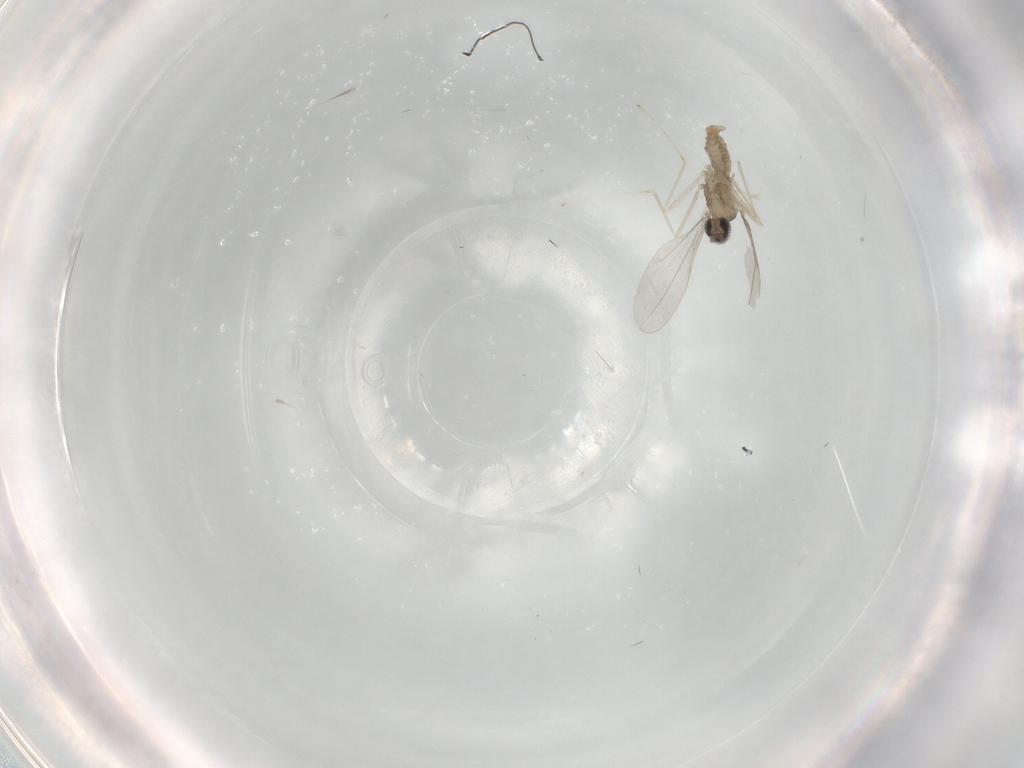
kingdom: Animalia
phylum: Arthropoda
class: Insecta
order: Diptera
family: Cecidomyiidae
